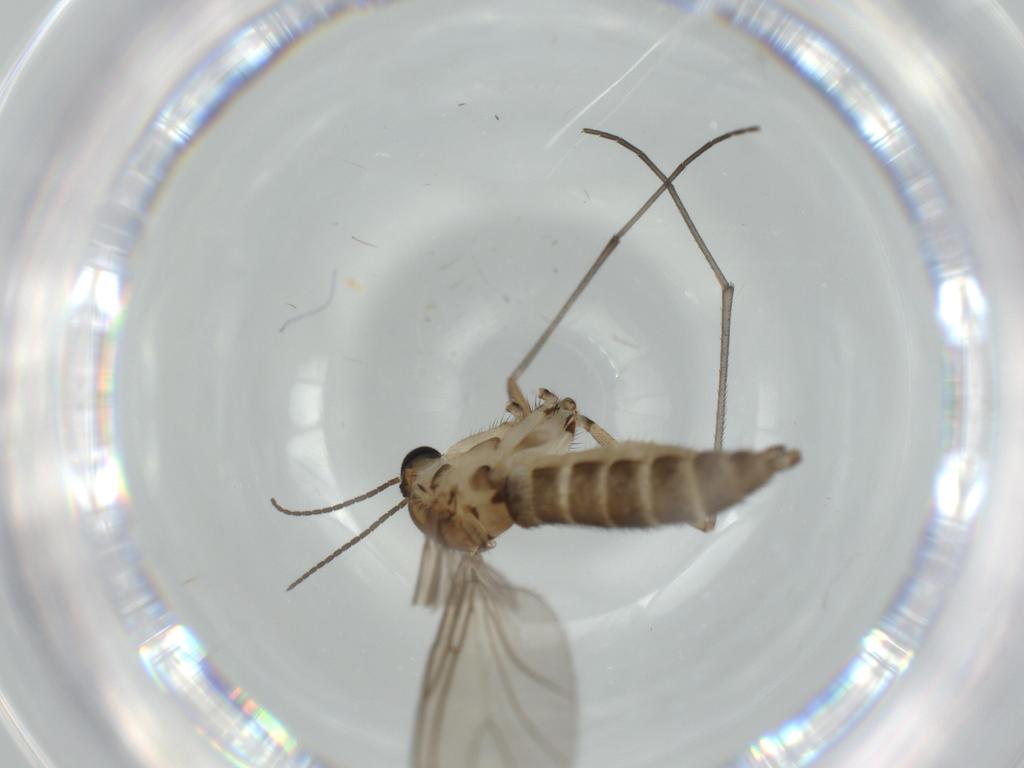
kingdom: Animalia
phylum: Arthropoda
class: Insecta
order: Diptera
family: Sciaridae
